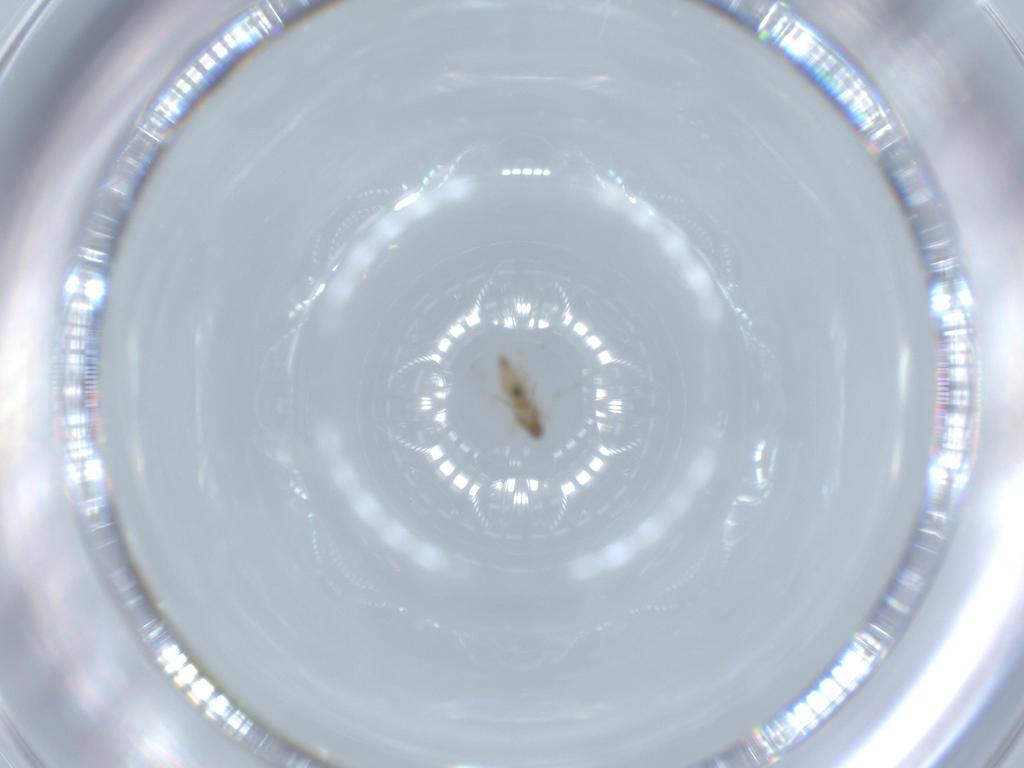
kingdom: Animalia
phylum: Arthropoda
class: Insecta
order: Diptera
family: Cecidomyiidae
